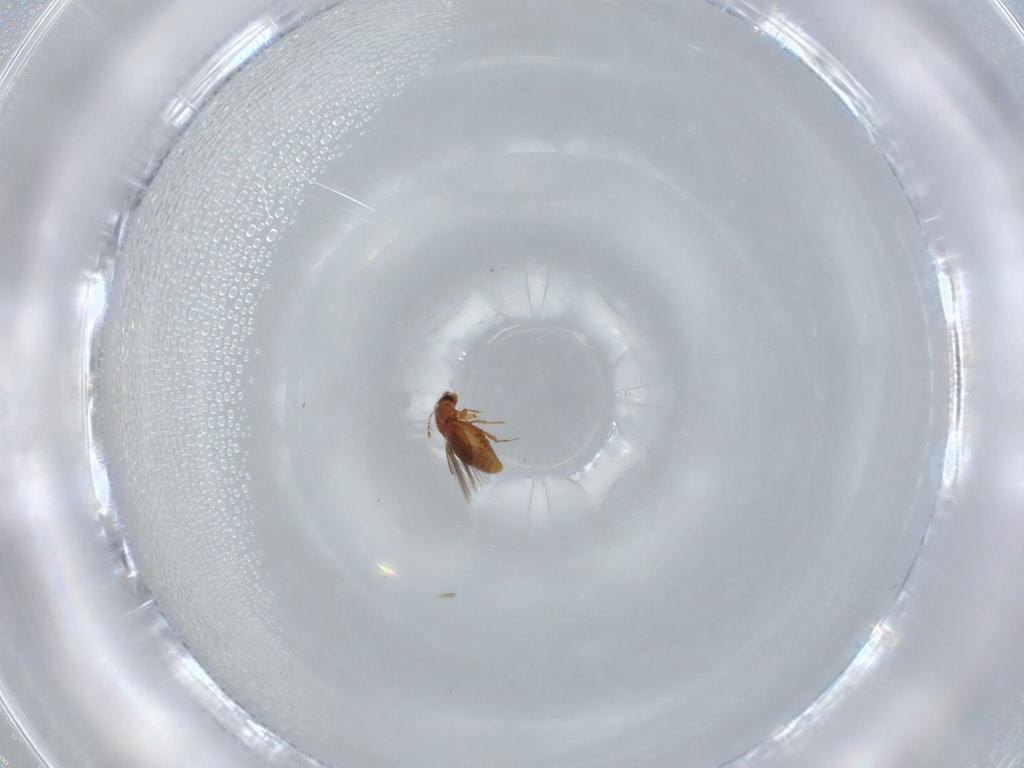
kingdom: Animalia
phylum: Arthropoda
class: Insecta
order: Coleoptera
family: Ptiliidae
